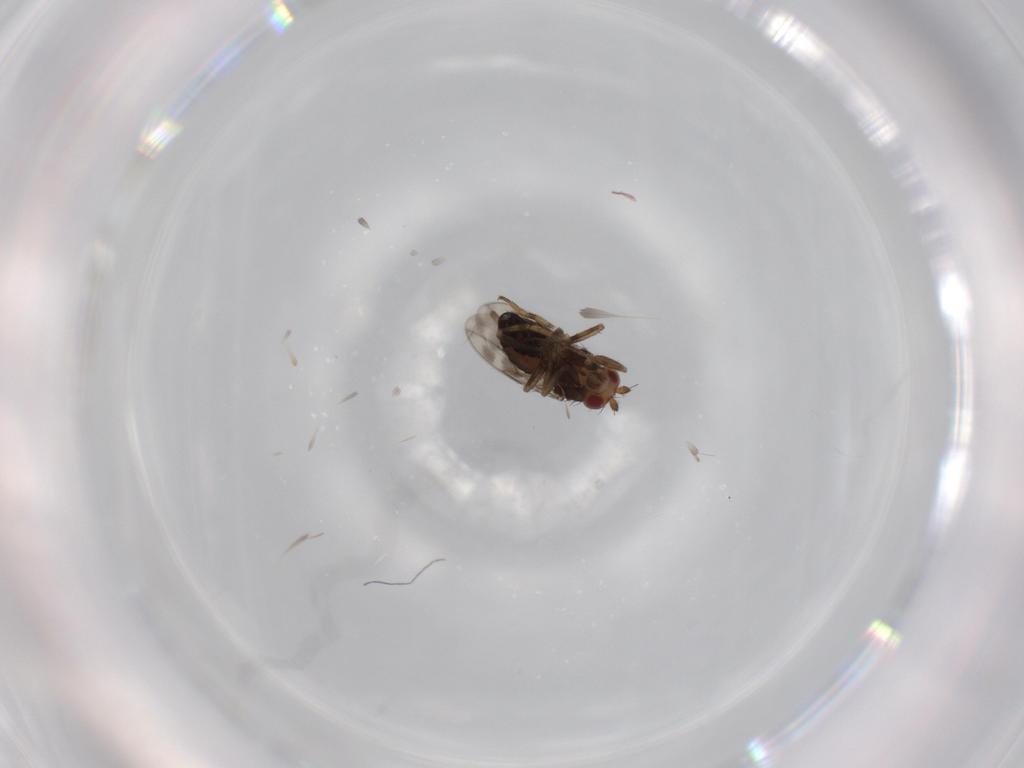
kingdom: Animalia
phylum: Arthropoda
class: Insecta
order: Diptera
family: Sphaeroceridae
